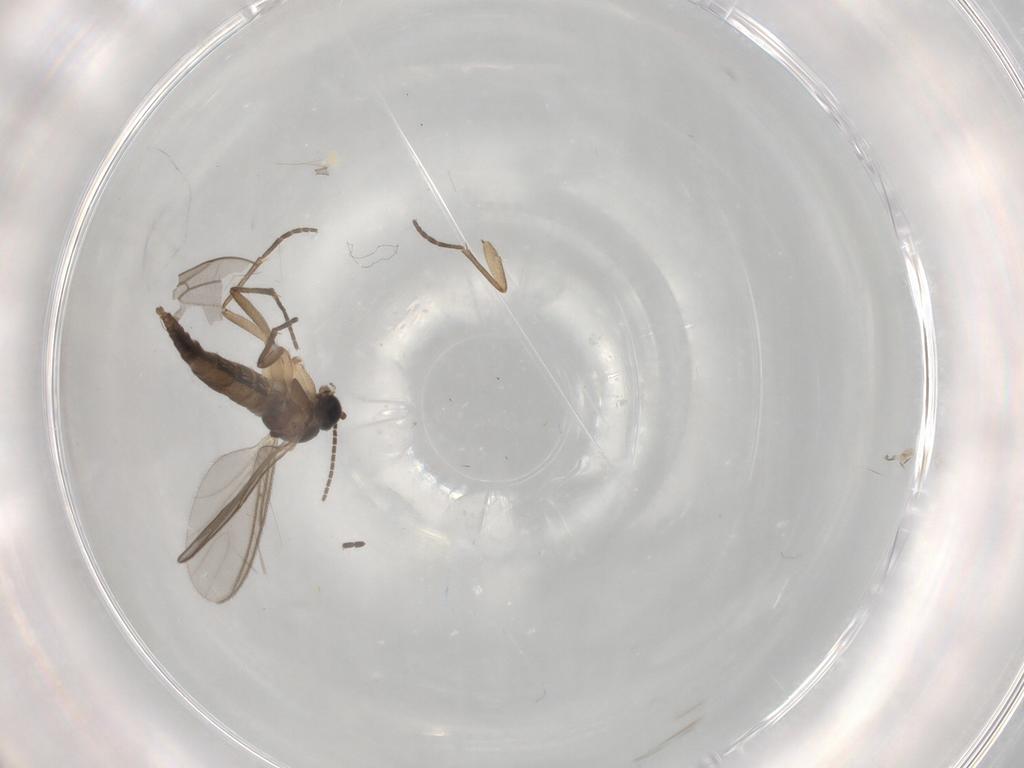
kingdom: Animalia
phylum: Arthropoda
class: Insecta
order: Diptera
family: Sciaridae
